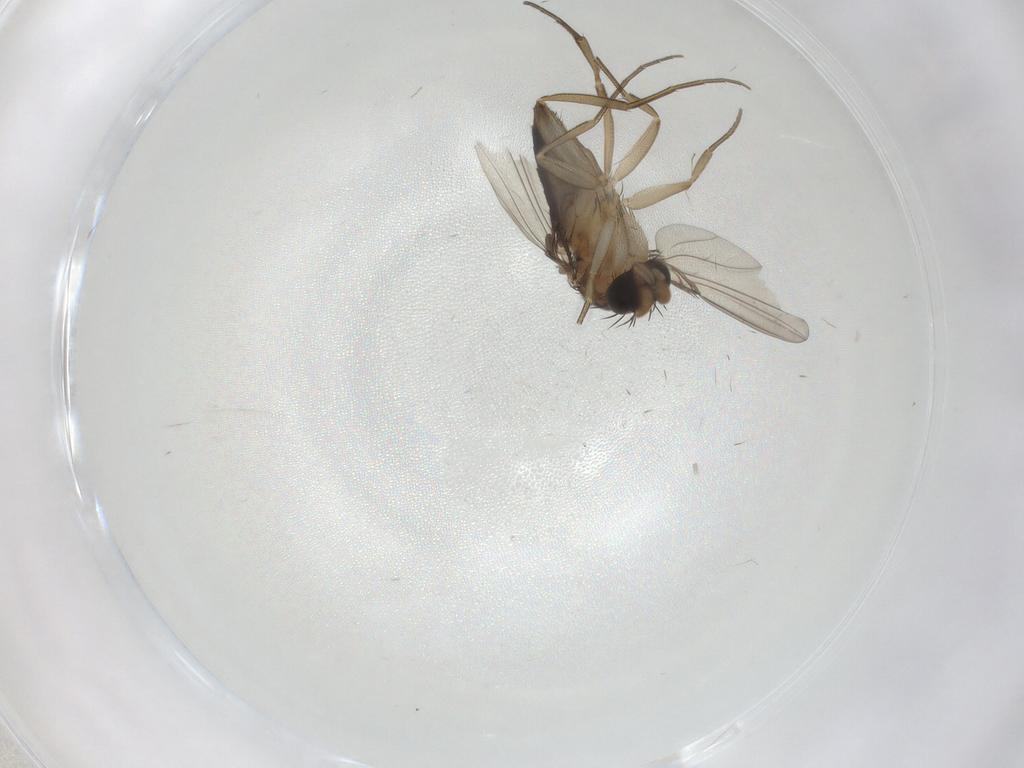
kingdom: Animalia
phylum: Arthropoda
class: Insecta
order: Diptera
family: Phoridae
